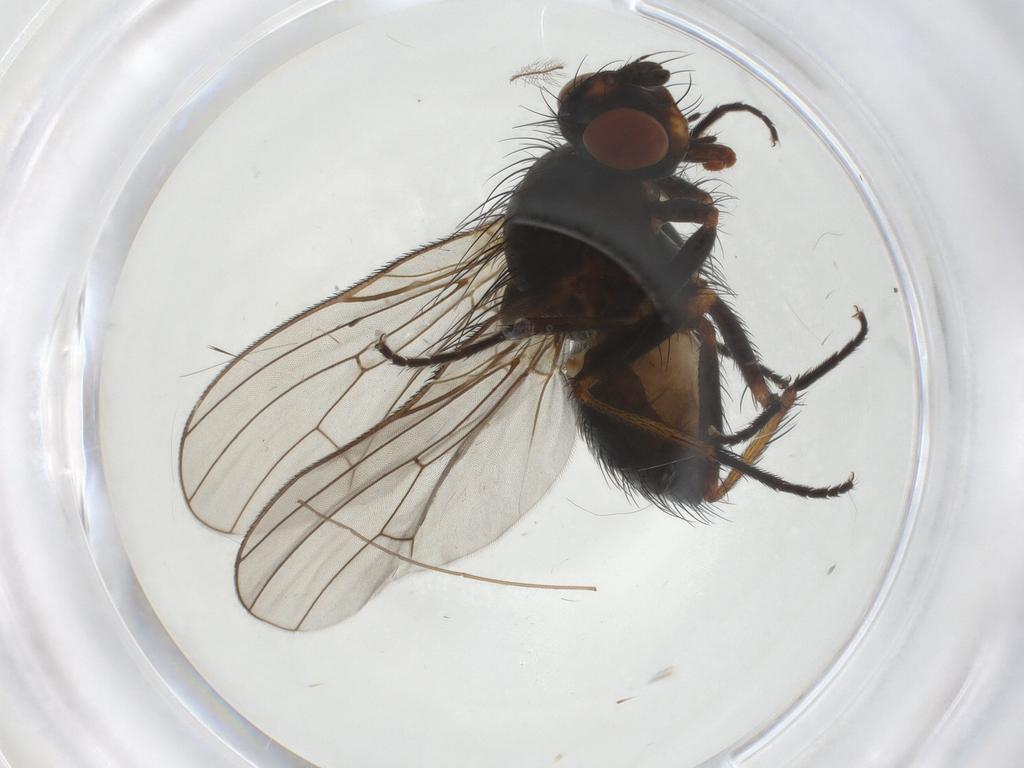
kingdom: Animalia
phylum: Arthropoda
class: Insecta
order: Diptera
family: Anthomyiidae
